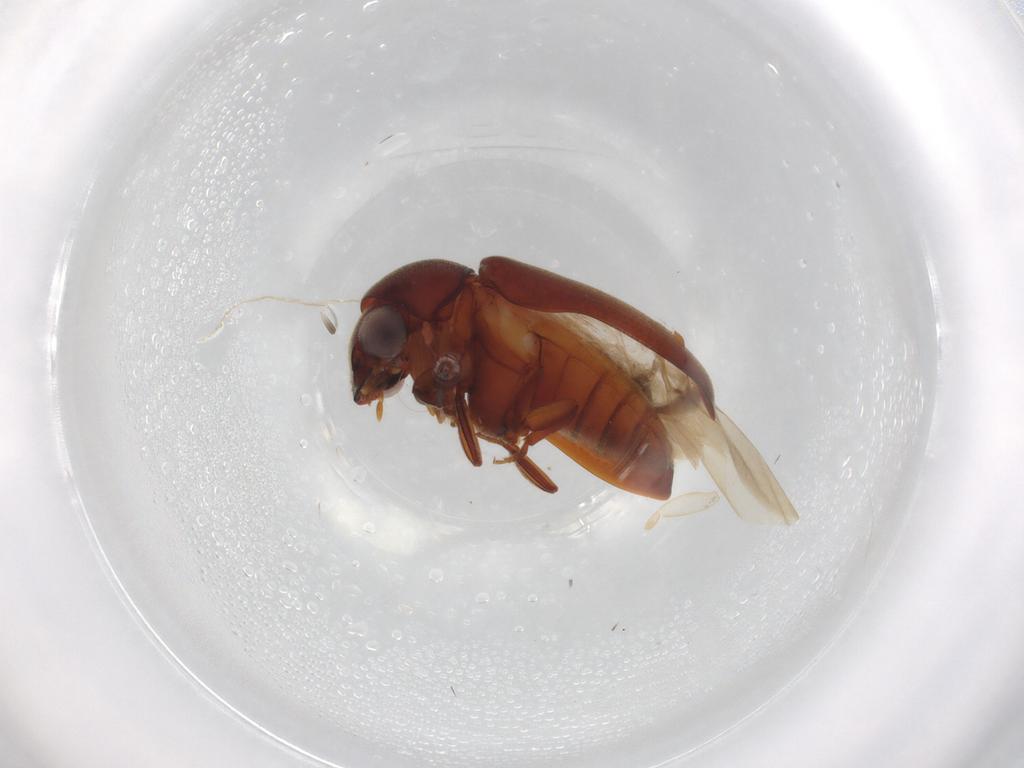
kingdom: Animalia
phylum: Arthropoda
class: Insecta
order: Coleoptera
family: Ptinidae
